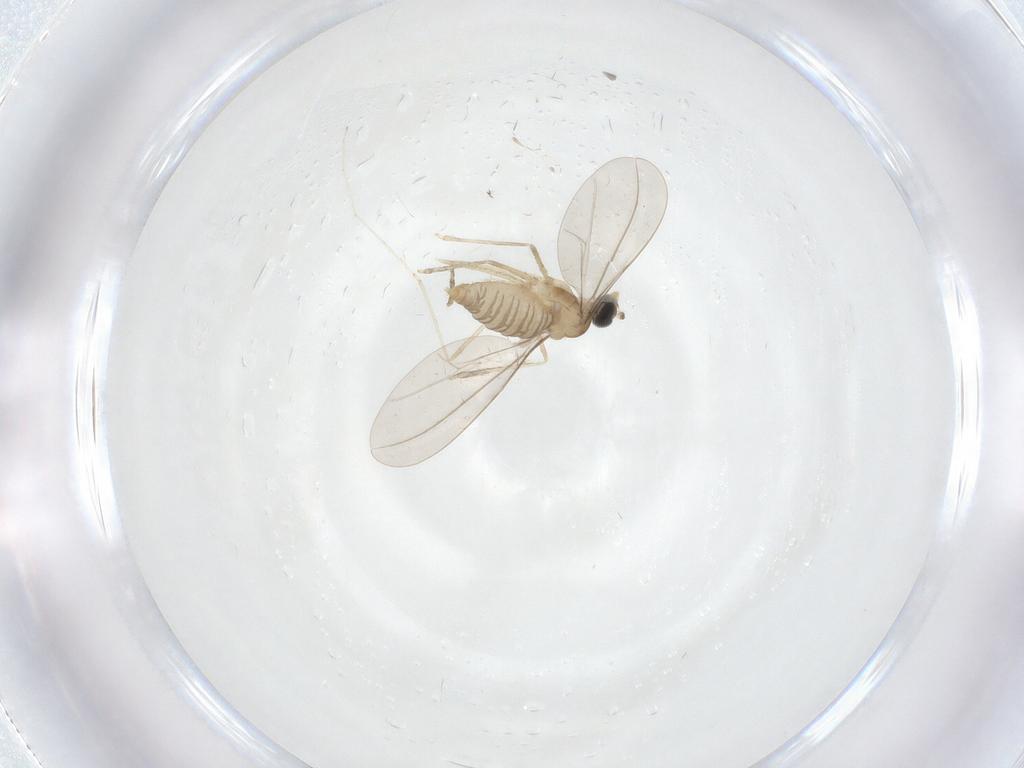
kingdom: Animalia
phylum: Arthropoda
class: Insecta
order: Diptera
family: Cecidomyiidae
